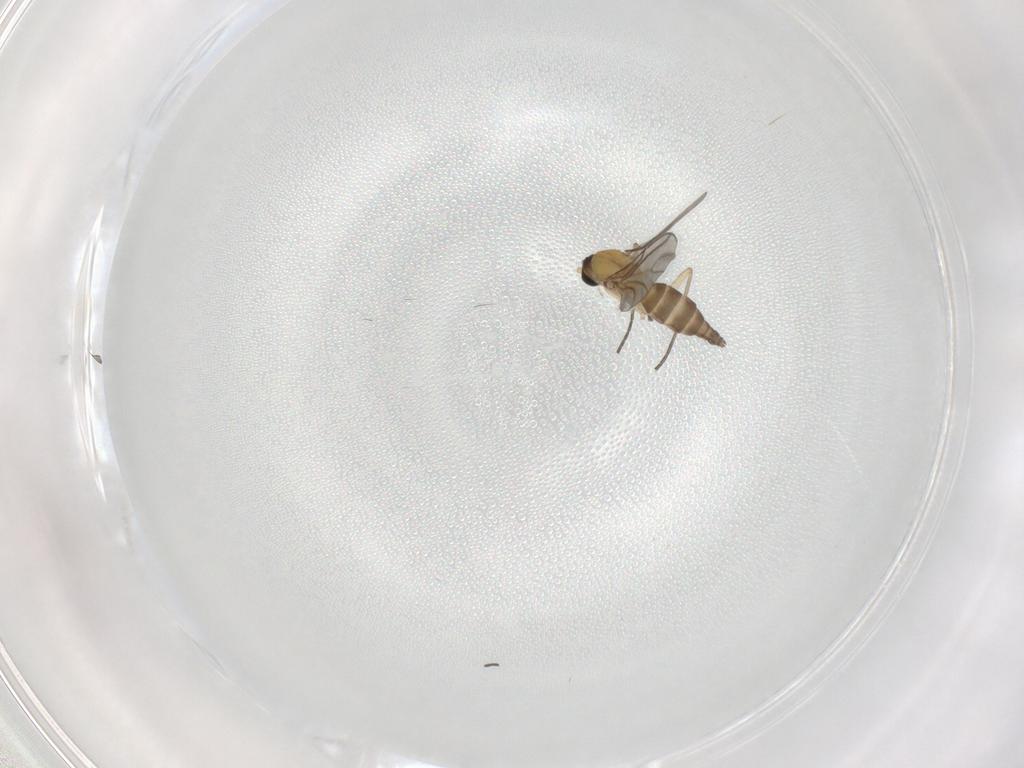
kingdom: Animalia
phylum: Arthropoda
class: Insecta
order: Diptera
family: Sciaridae
